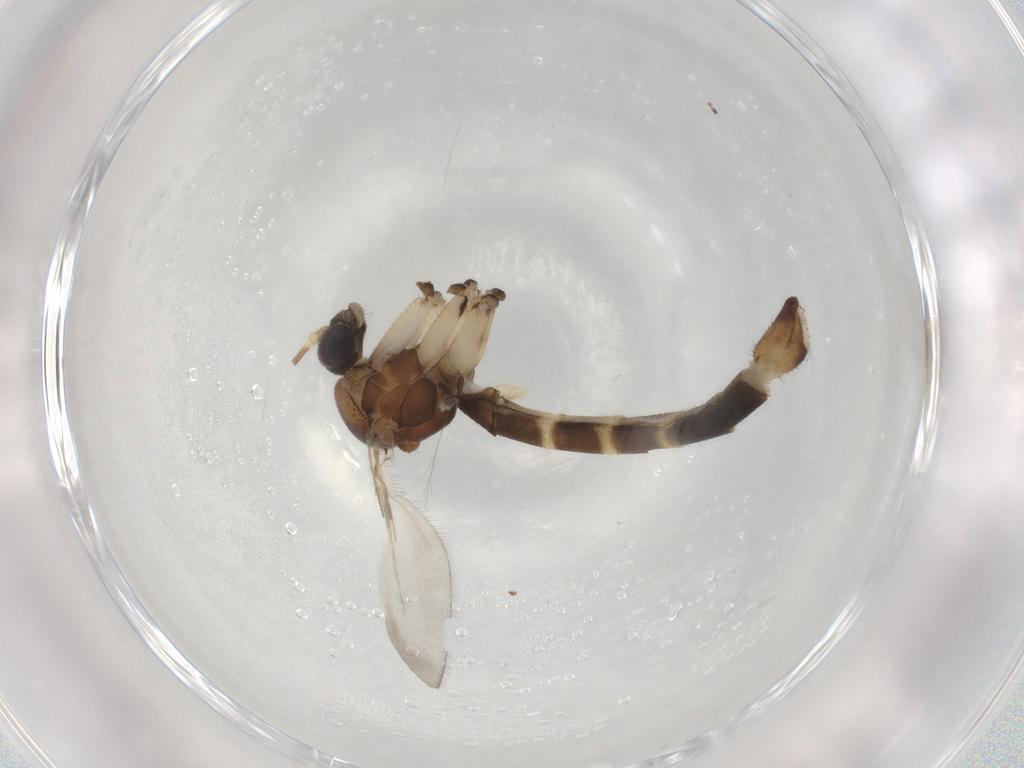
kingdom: Animalia
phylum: Arthropoda
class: Insecta
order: Diptera
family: Mycetophilidae
